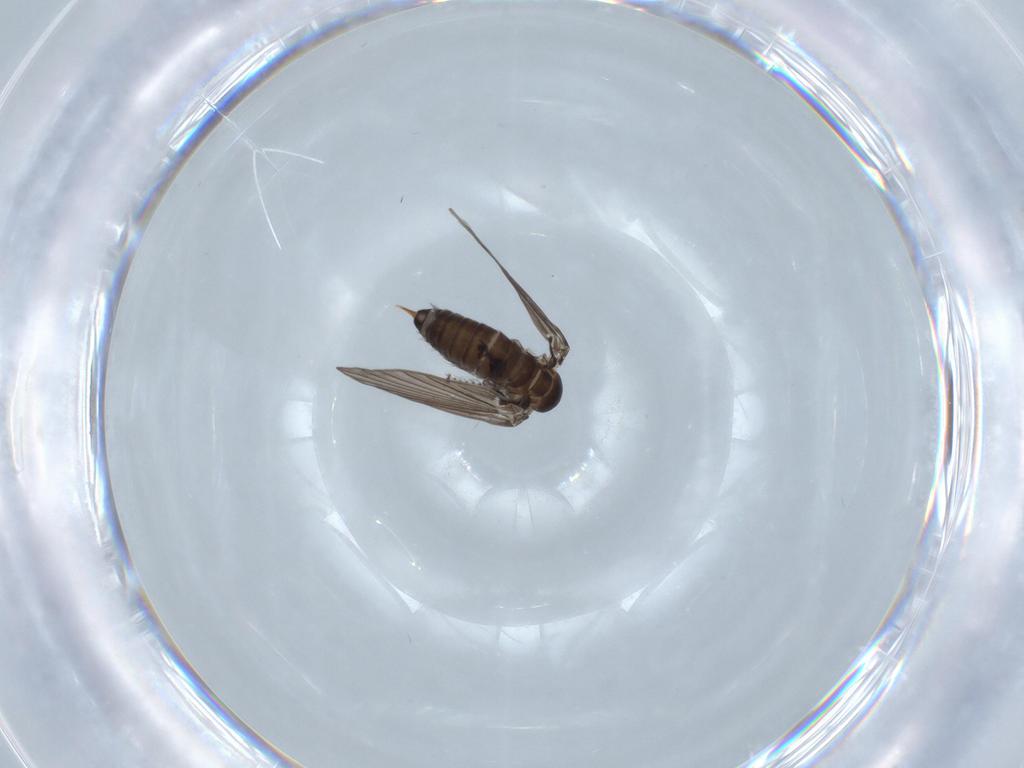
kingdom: Animalia
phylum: Arthropoda
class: Insecta
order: Diptera
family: Psychodidae
